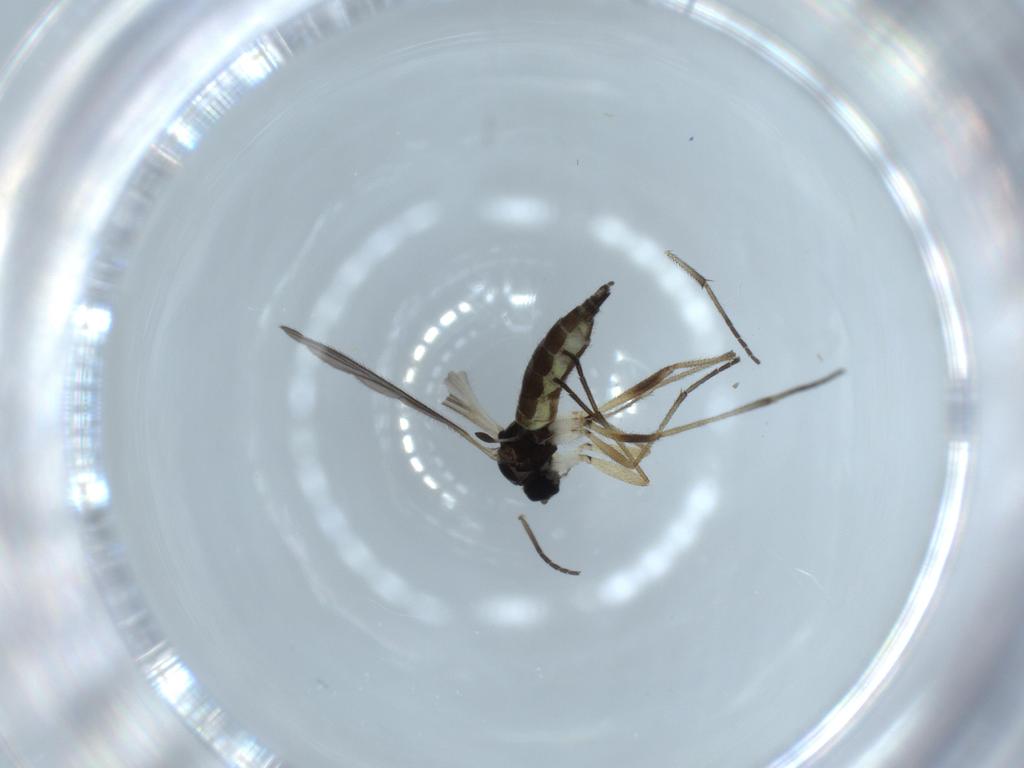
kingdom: Animalia
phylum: Arthropoda
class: Insecta
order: Diptera
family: Sciaridae
